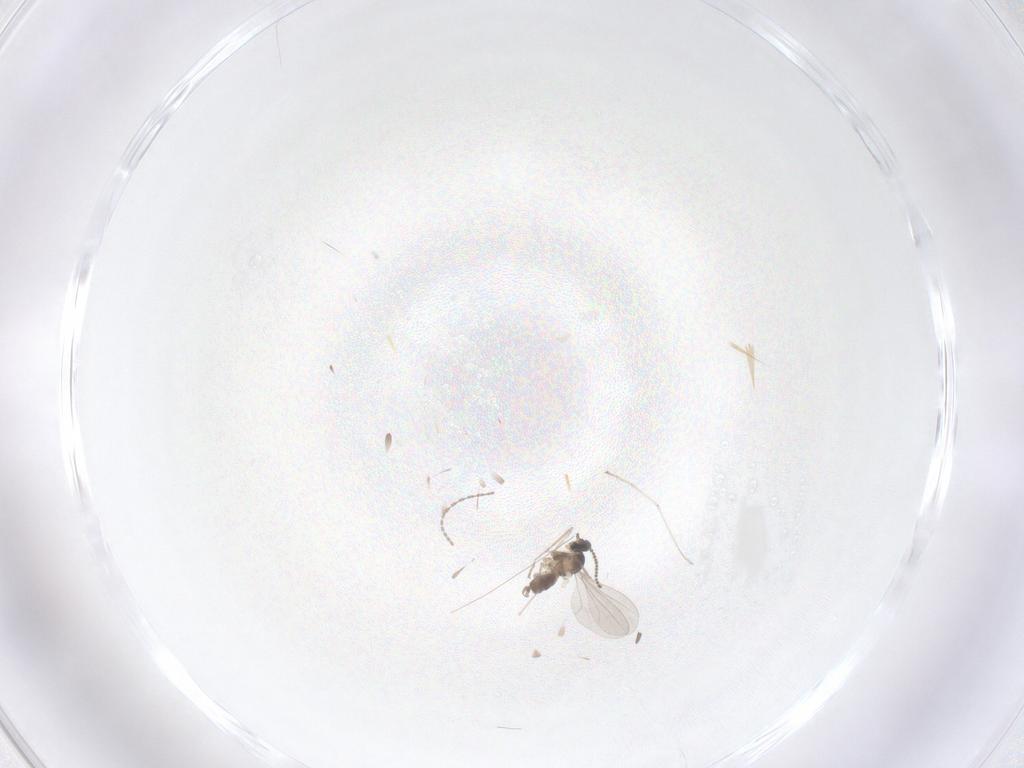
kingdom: Animalia
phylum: Arthropoda
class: Insecta
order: Diptera
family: Cecidomyiidae
